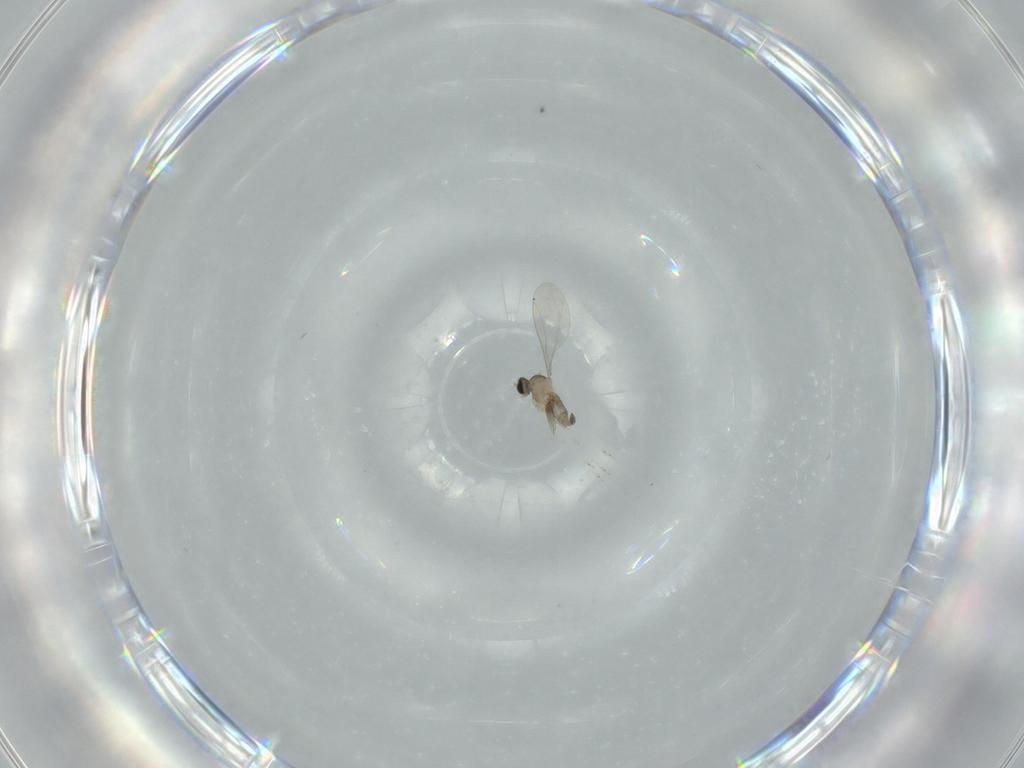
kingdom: Animalia
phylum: Arthropoda
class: Insecta
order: Diptera
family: Cecidomyiidae
